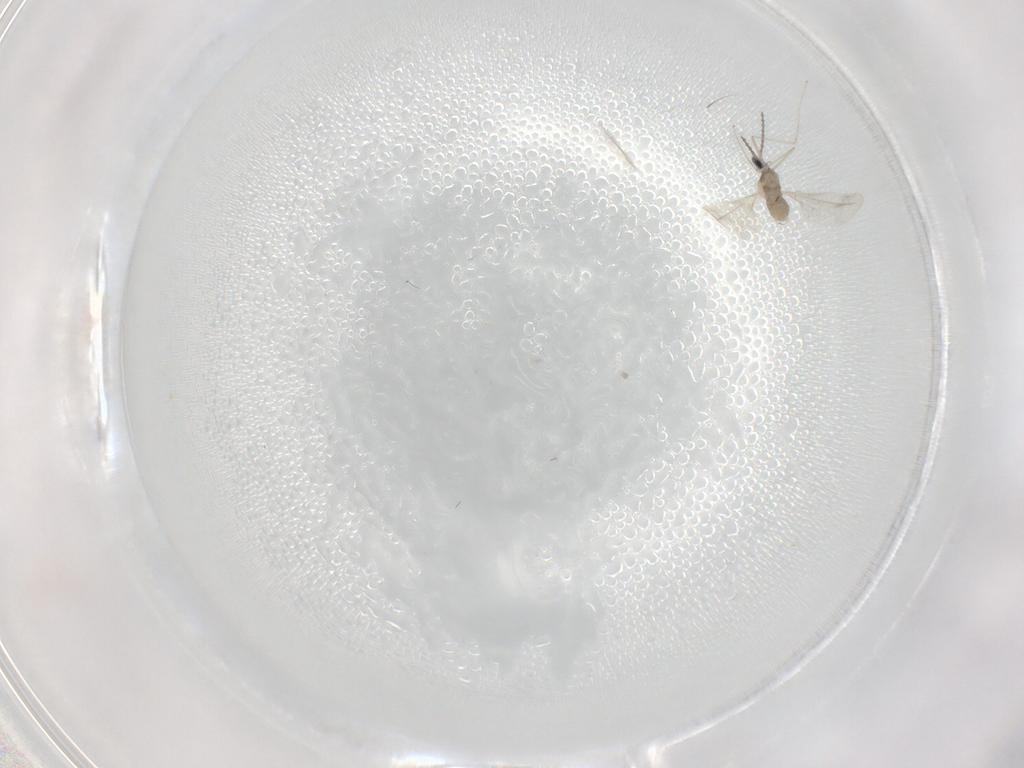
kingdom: Animalia
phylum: Arthropoda
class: Insecta
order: Diptera
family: Cecidomyiidae
